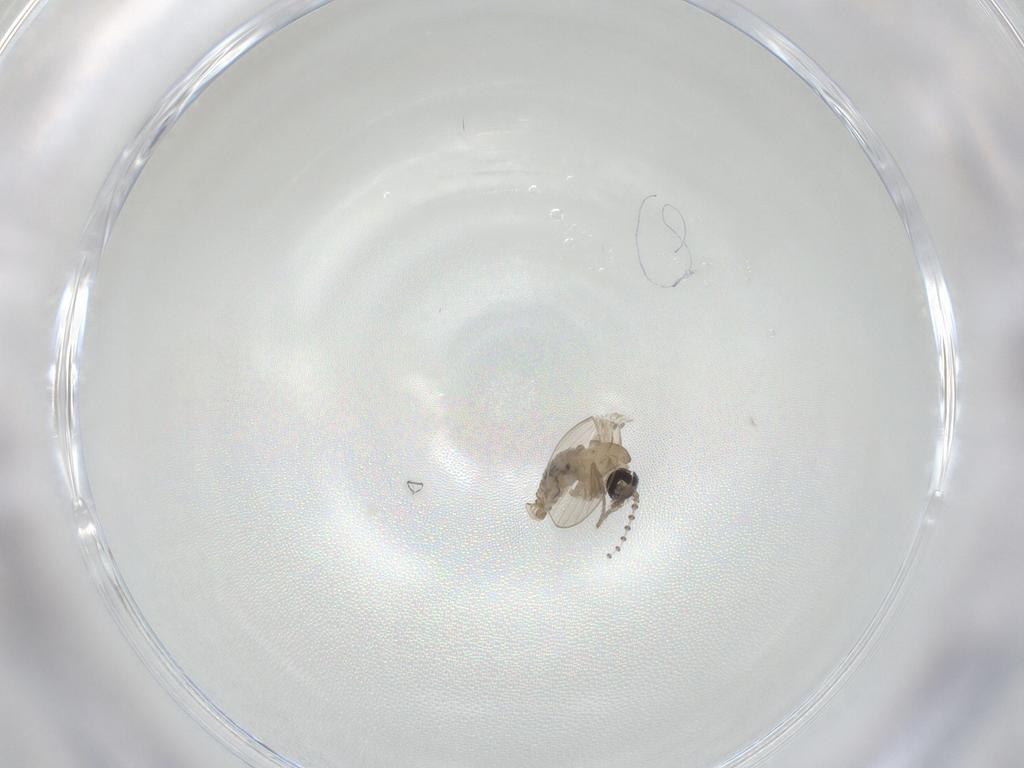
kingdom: Animalia
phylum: Arthropoda
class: Insecta
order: Diptera
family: Psychodidae
